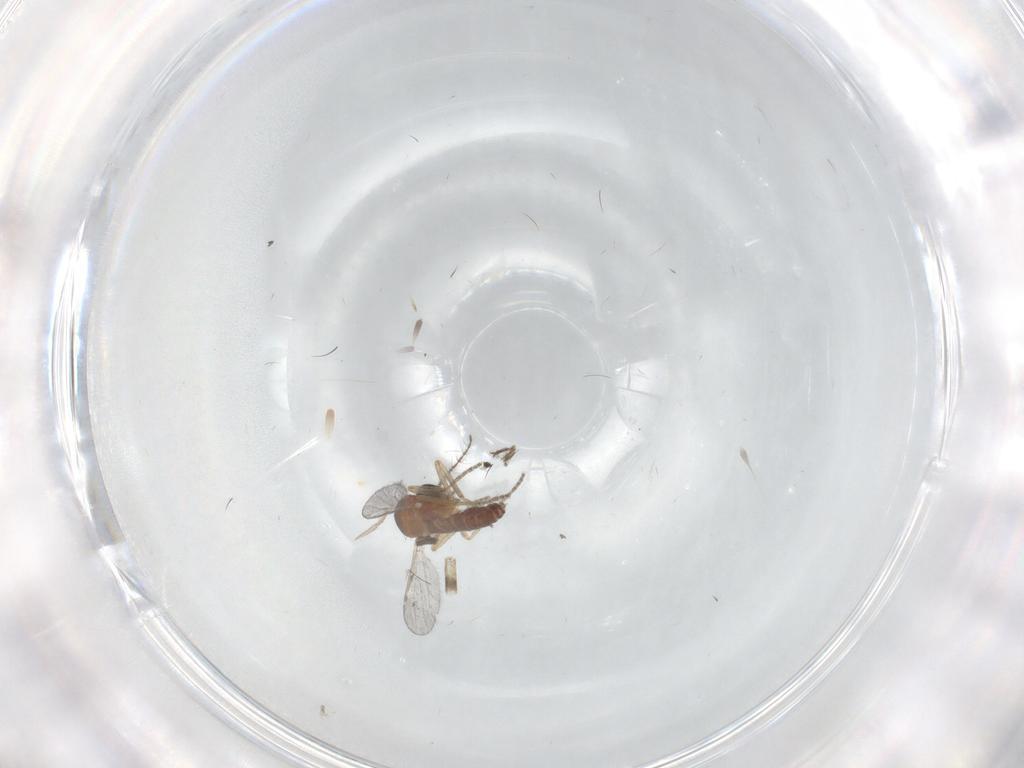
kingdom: Animalia
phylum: Arthropoda
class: Insecta
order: Diptera
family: Ceratopogonidae
